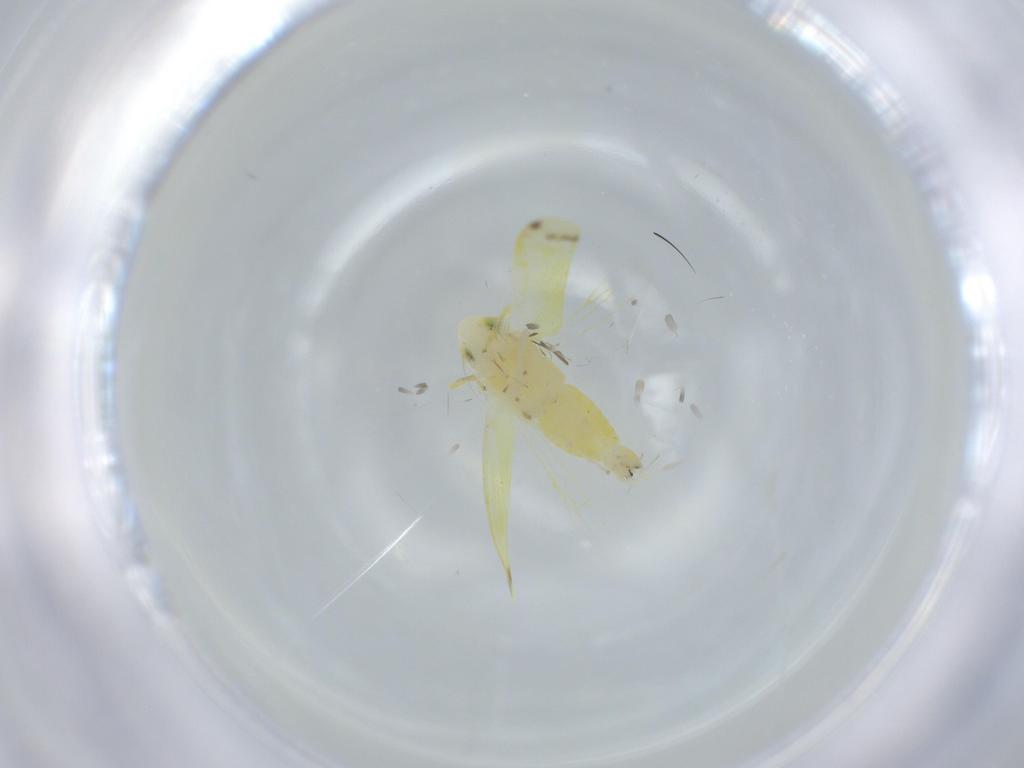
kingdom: Animalia
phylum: Arthropoda
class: Insecta
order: Hemiptera
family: Cicadellidae
